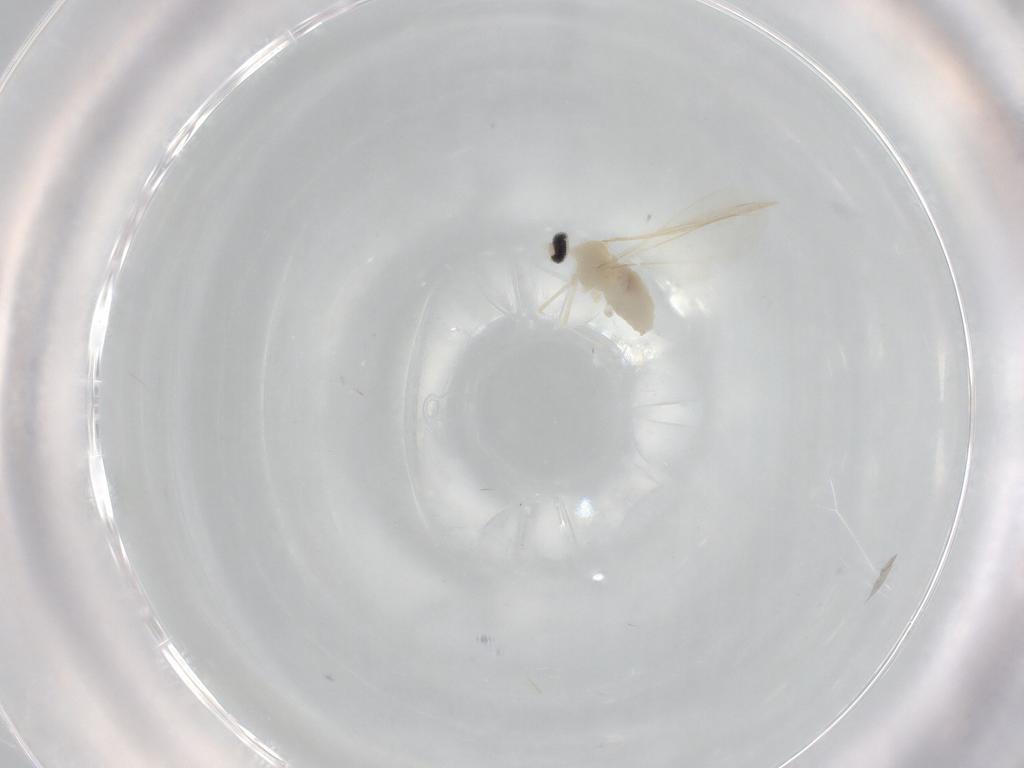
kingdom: Animalia
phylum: Arthropoda
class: Insecta
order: Diptera
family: Cecidomyiidae
